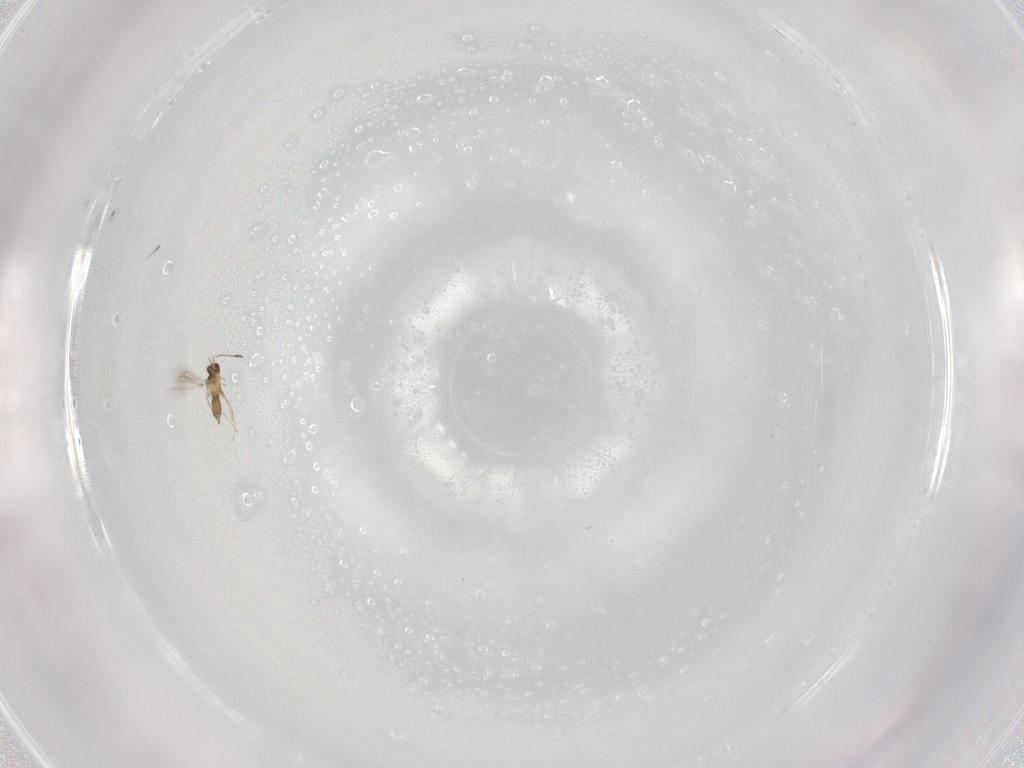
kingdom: Animalia
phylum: Arthropoda
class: Insecta
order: Hymenoptera
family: Mymaridae
